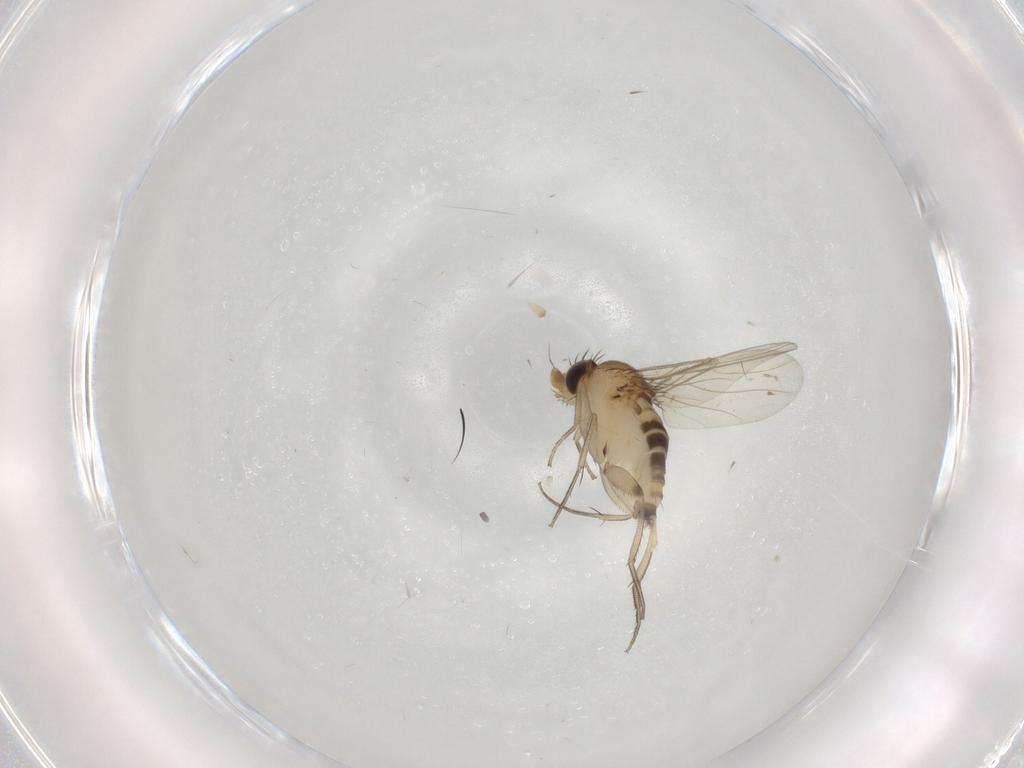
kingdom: Animalia
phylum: Arthropoda
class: Insecta
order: Diptera
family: Phoridae
